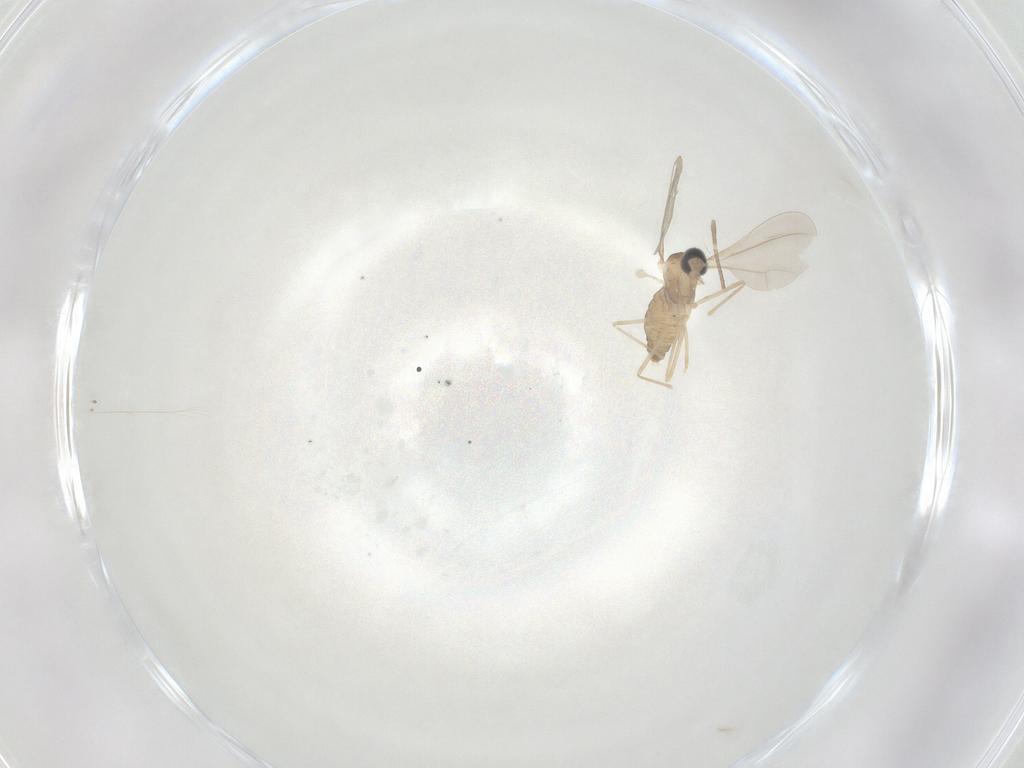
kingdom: Animalia
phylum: Arthropoda
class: Insecta
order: Diptera
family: Cecidomyiidae
